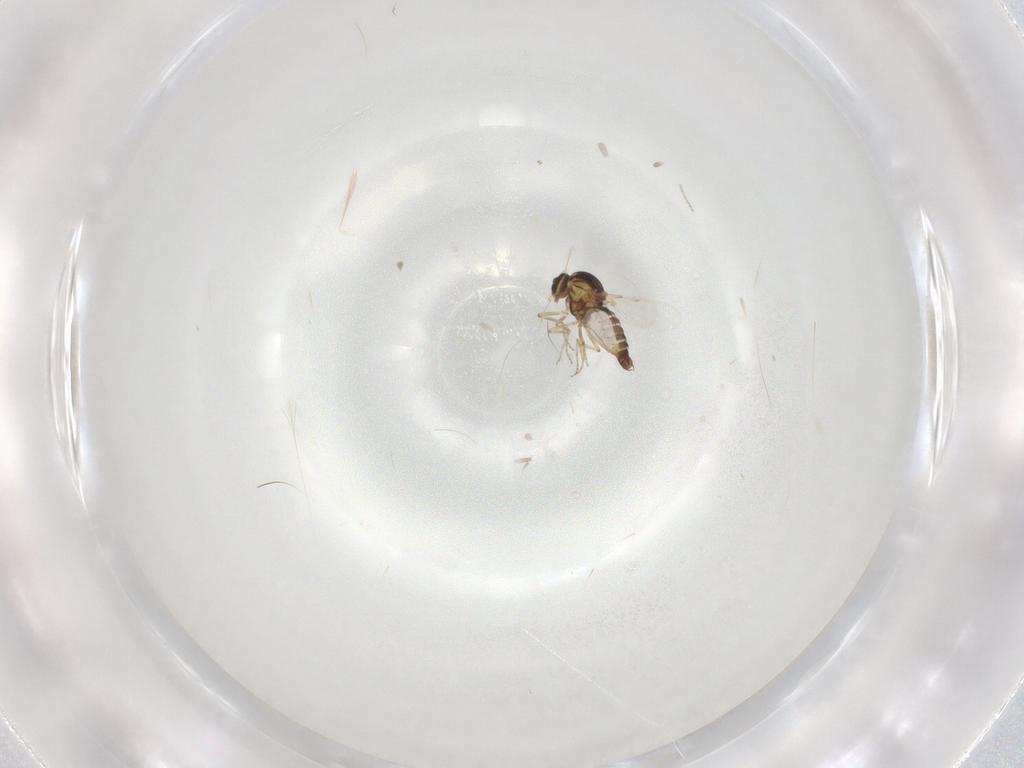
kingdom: Animalia
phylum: Arthropoda
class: Insecta
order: Diptera
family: Ceratopogonidae
